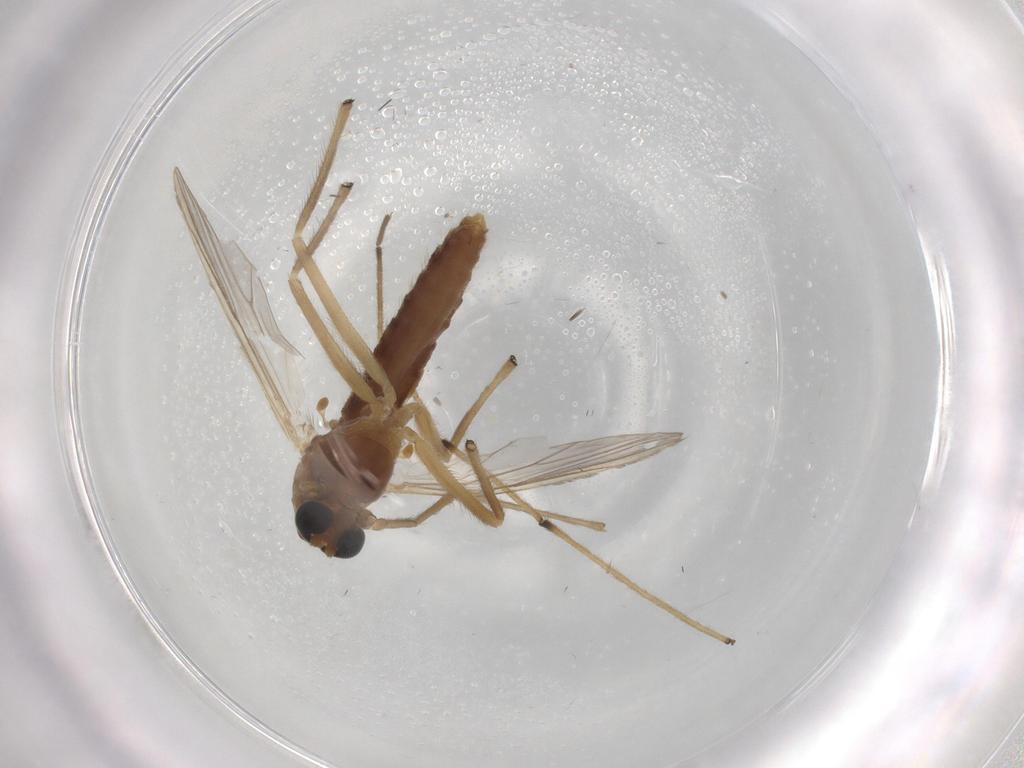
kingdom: Animalia
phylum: Arthropoda
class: Insecta
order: Diptera
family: Chironomidae
